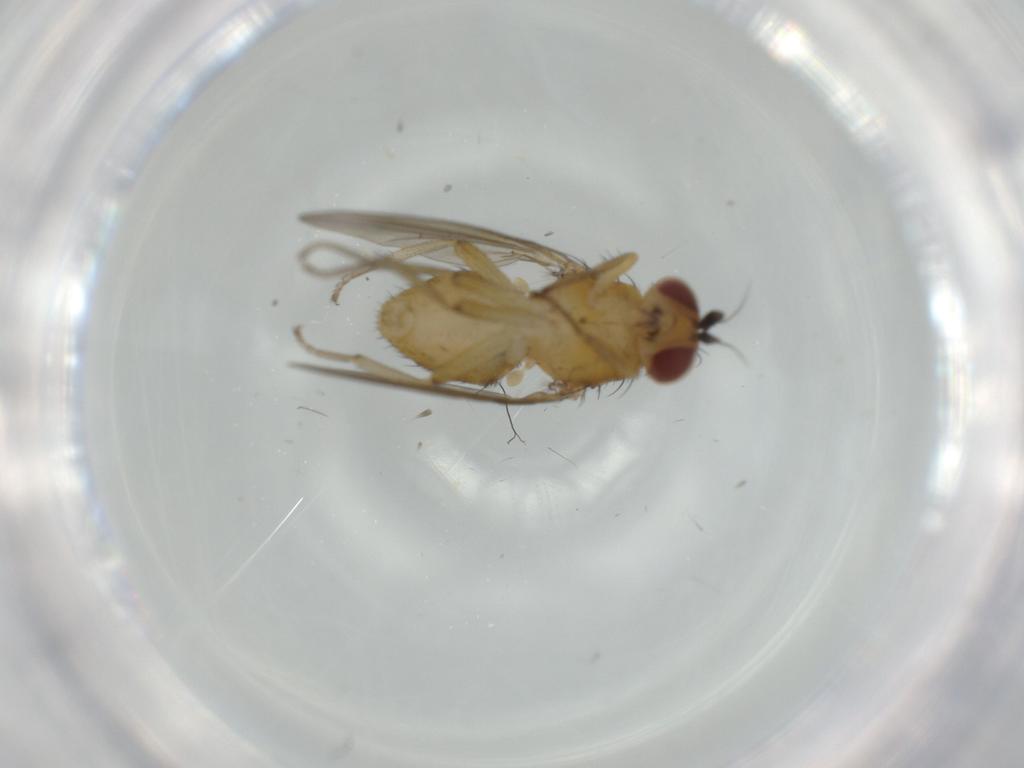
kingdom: Animalia
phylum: Arthropoda
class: Insecta
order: Diptera
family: Lauxaniidae
